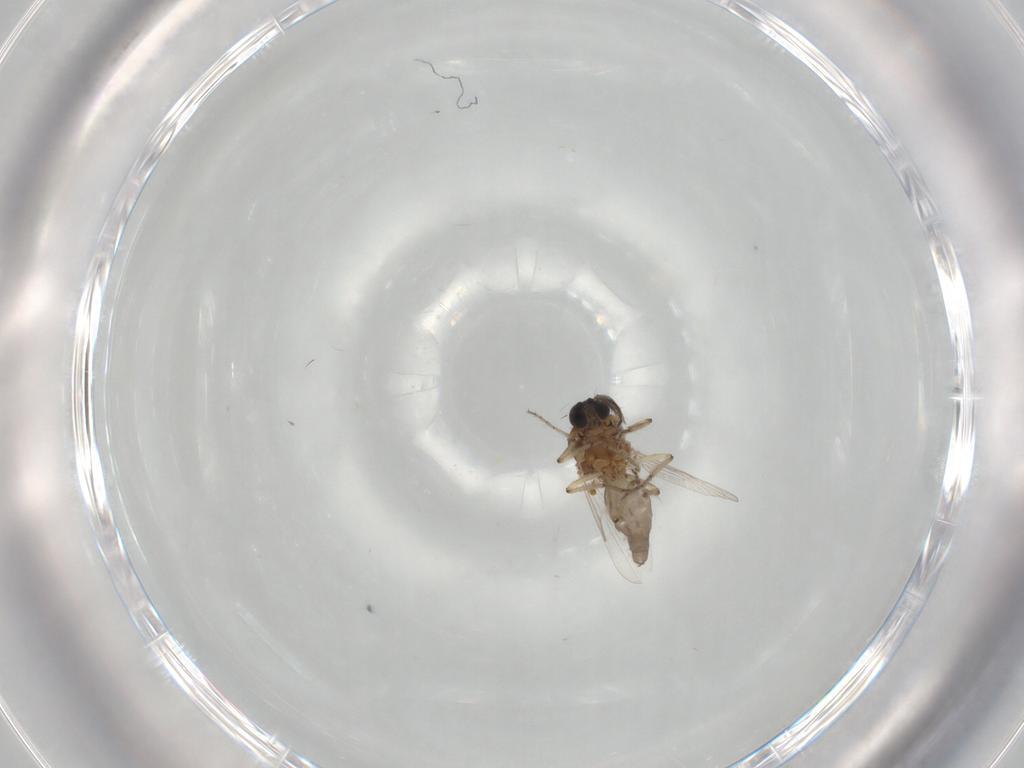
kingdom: Animalia
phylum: Arthropoda
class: Insecta
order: Diptera
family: Ceratopogonidae
